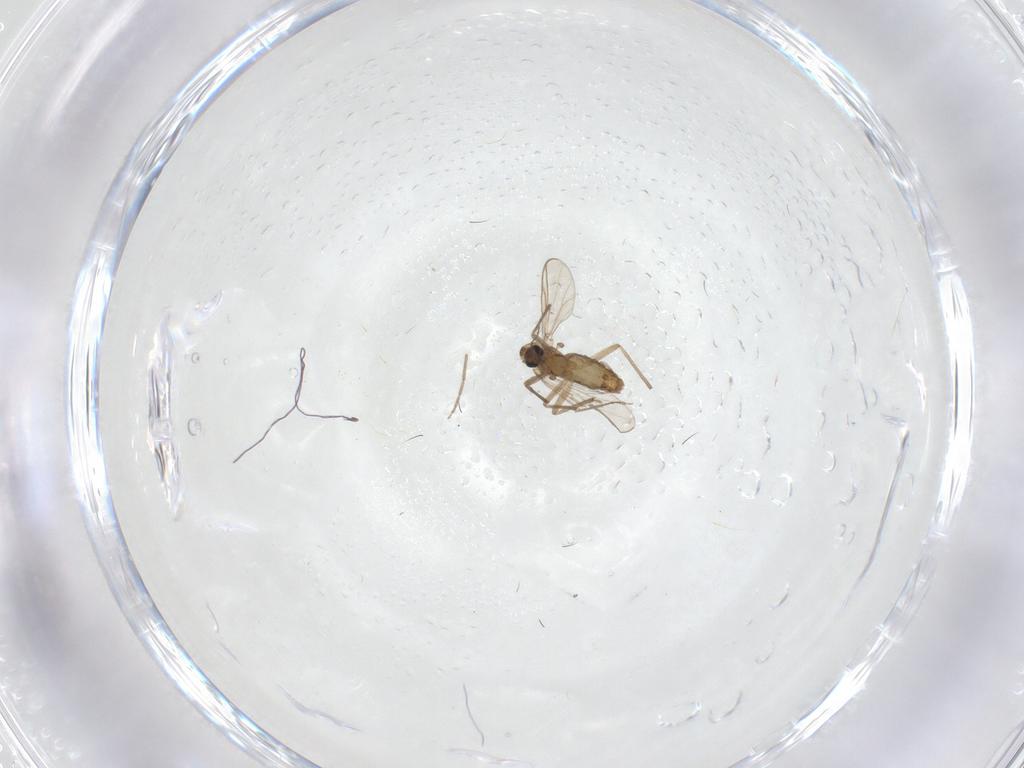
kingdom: Animalia
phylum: Arthropoda
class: Insecta
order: Diptera
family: Chironomidae
